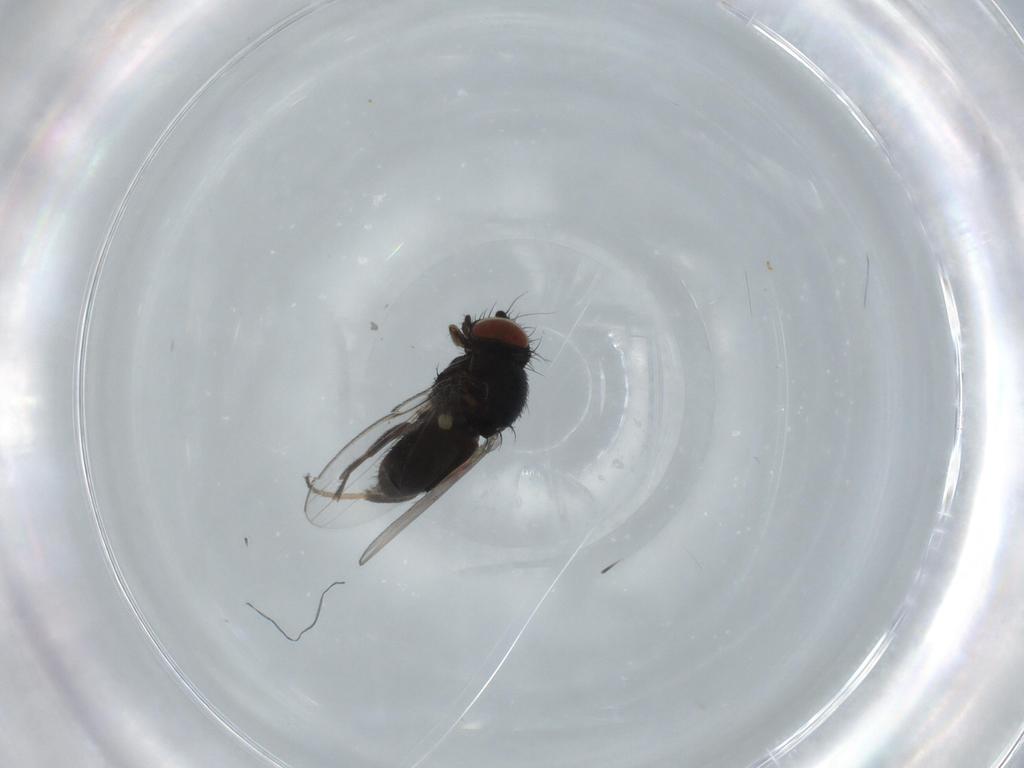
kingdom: Animalia
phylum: Arthropoda
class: Insecta
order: Diptera
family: Milichiidae
